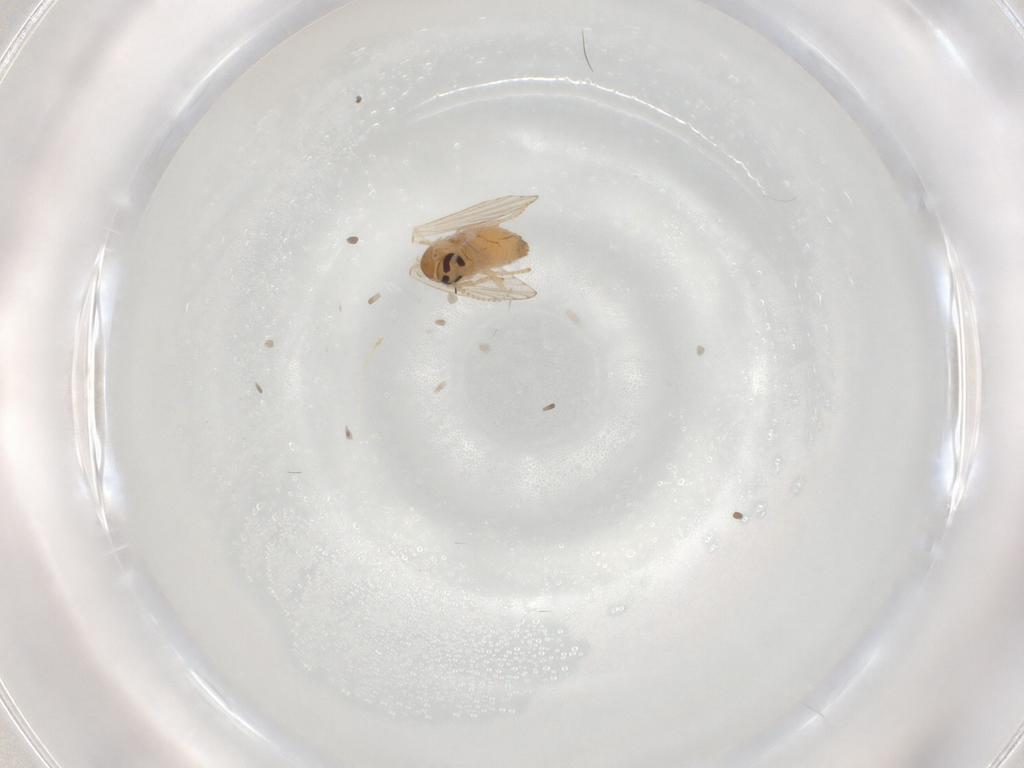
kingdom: Animalia
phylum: Arthropoda
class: Insecta
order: Diptera
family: Psychodidae
